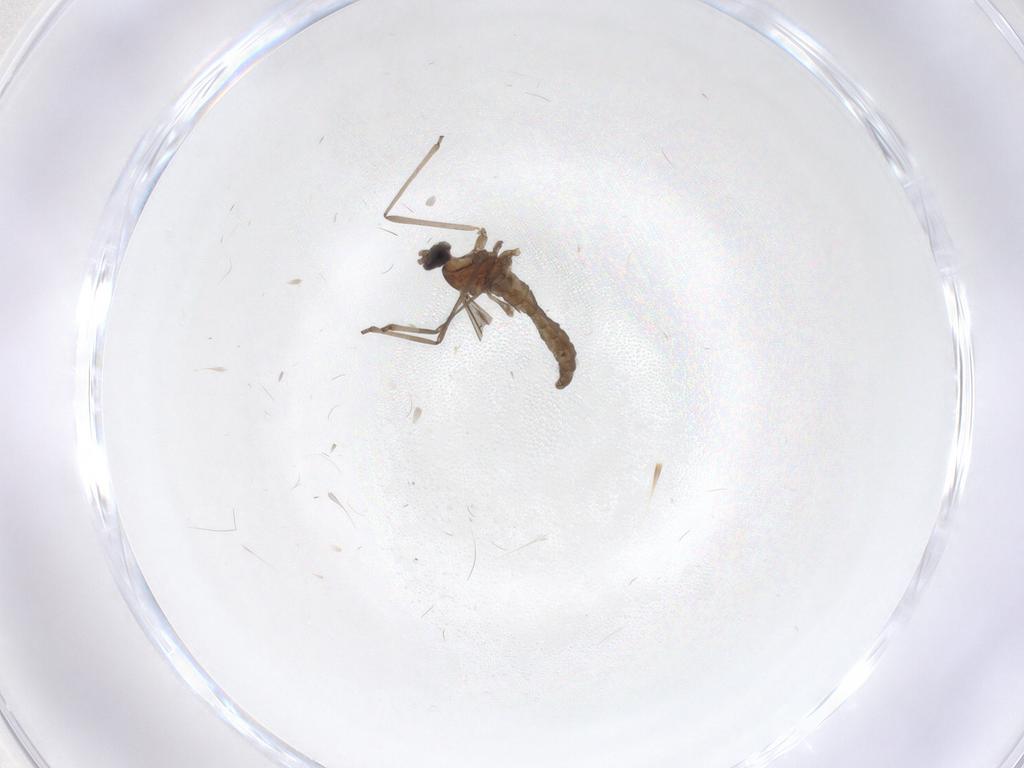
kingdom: Animalia
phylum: Arthropoda
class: Insecta
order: Diptera
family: Cecidomyiidae
